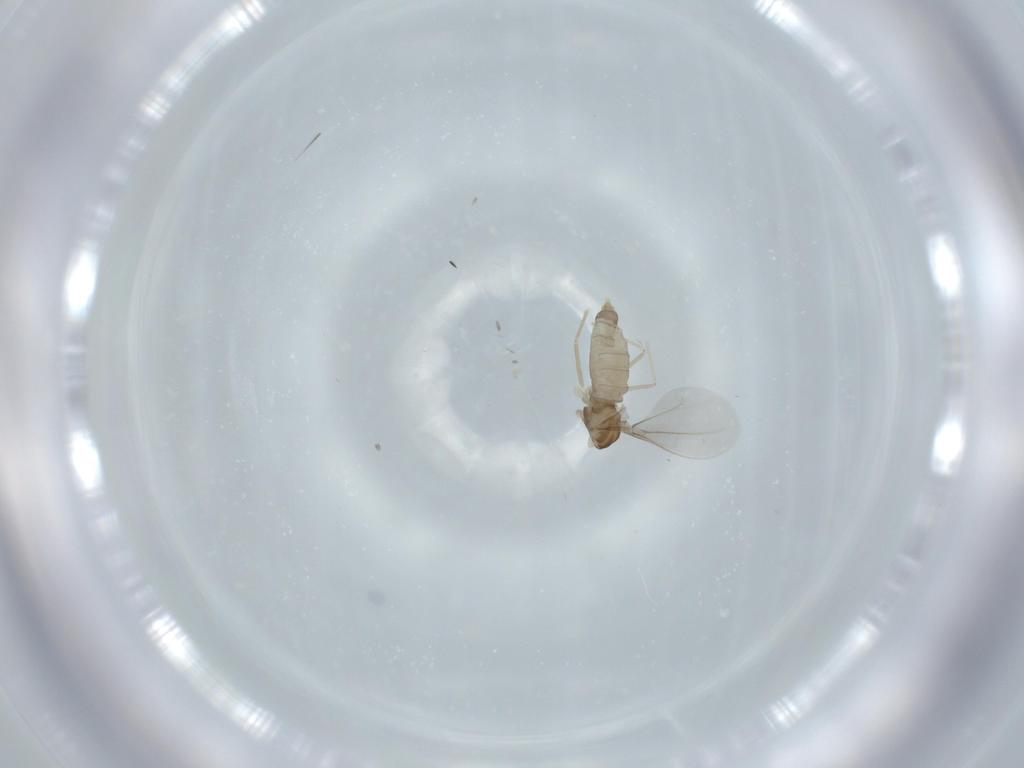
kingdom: Animalia
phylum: Arthropoda
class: Insecta
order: Diptera
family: Cecidomyiidae
